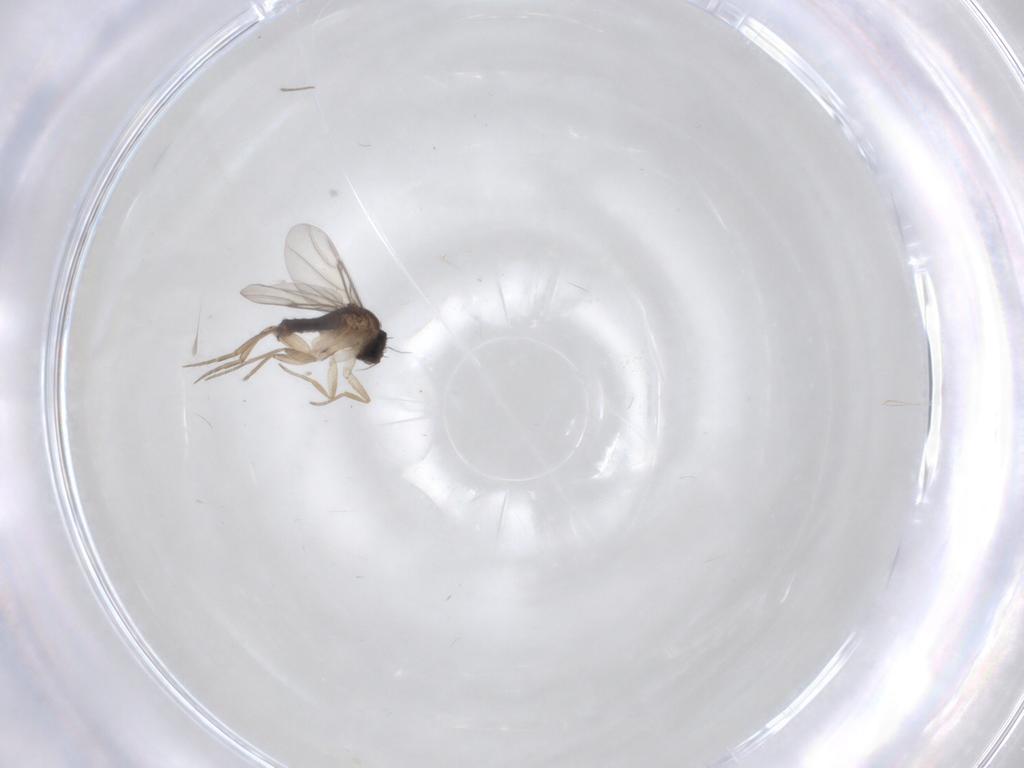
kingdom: Animalia
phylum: Arthropoda
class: Insecta
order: Diptera
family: Phoridae
